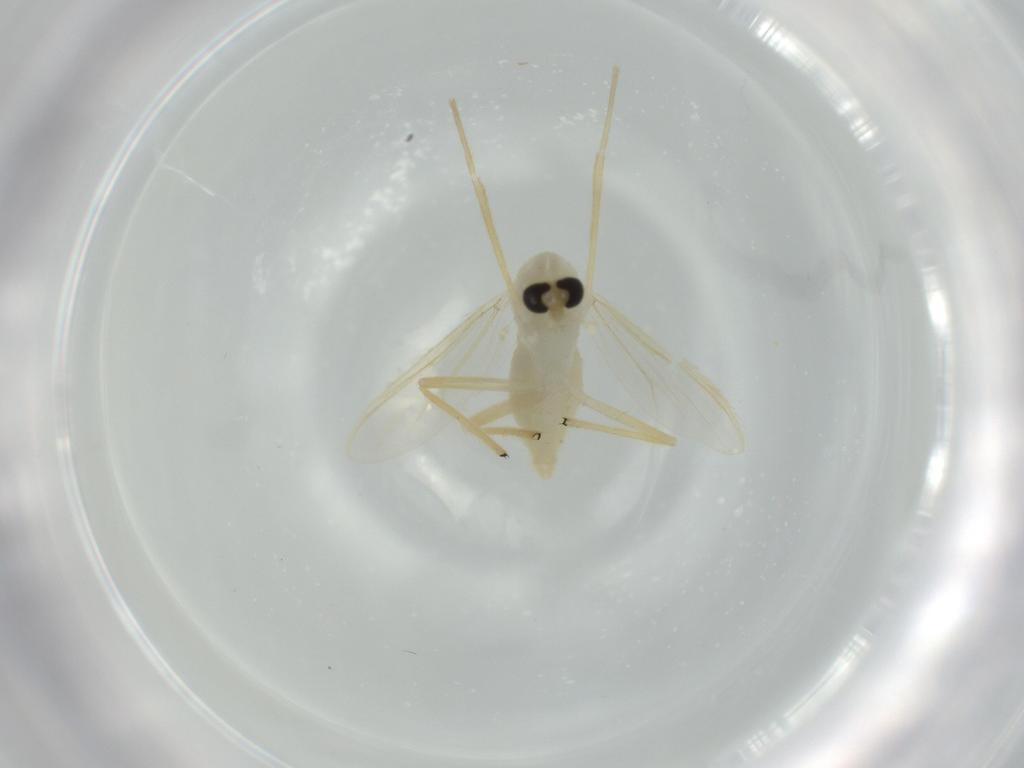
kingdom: Animalia
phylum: Arthropoda
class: Insecta
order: Diptera
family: Chironomidae
